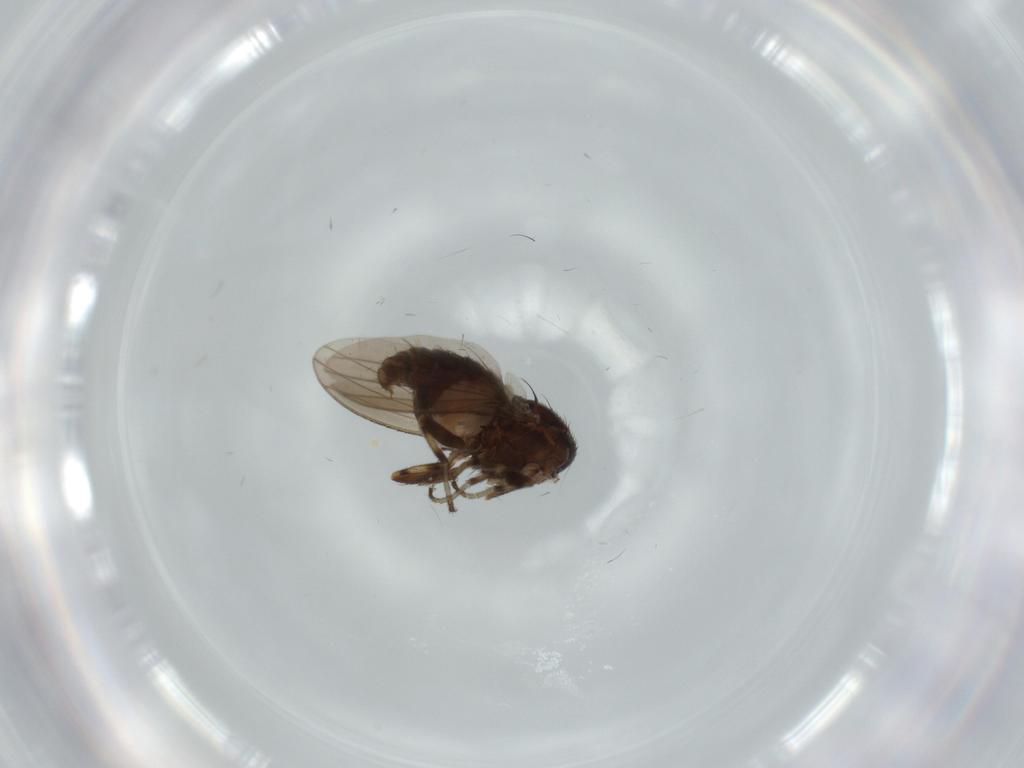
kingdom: Animalia
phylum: Arthropoda
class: Insecta
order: Diptera
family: Heleomyzidae
